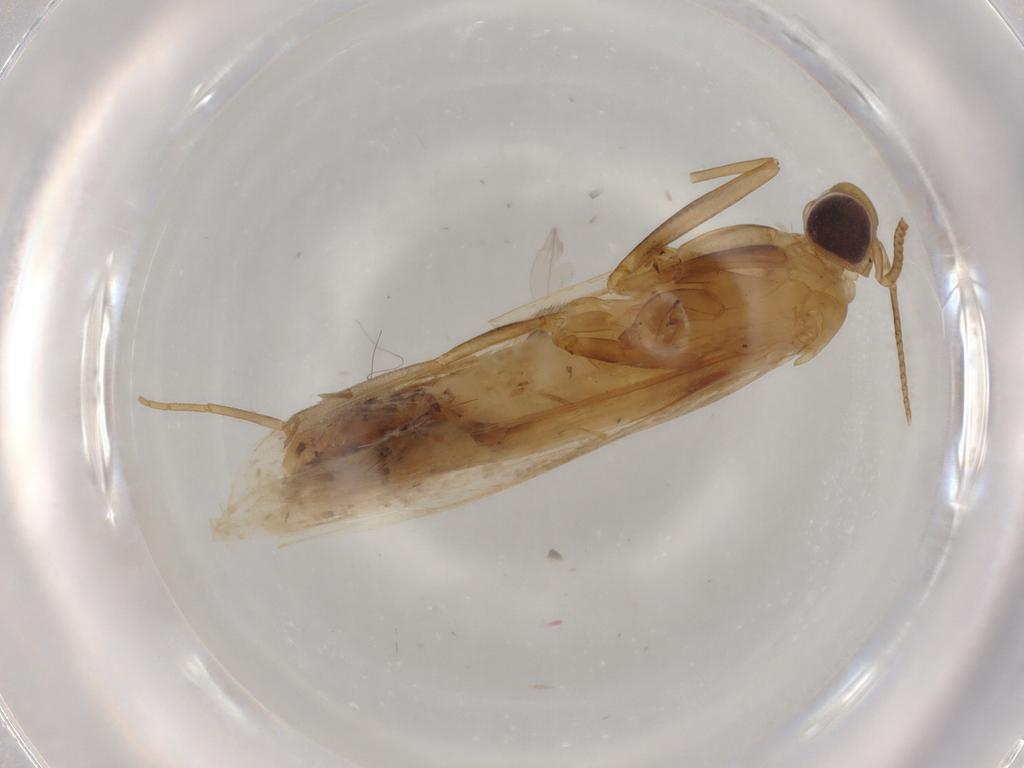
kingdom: Animalia
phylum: Arthropoda
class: Insecta
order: Lepidoptera
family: Pyralidae
